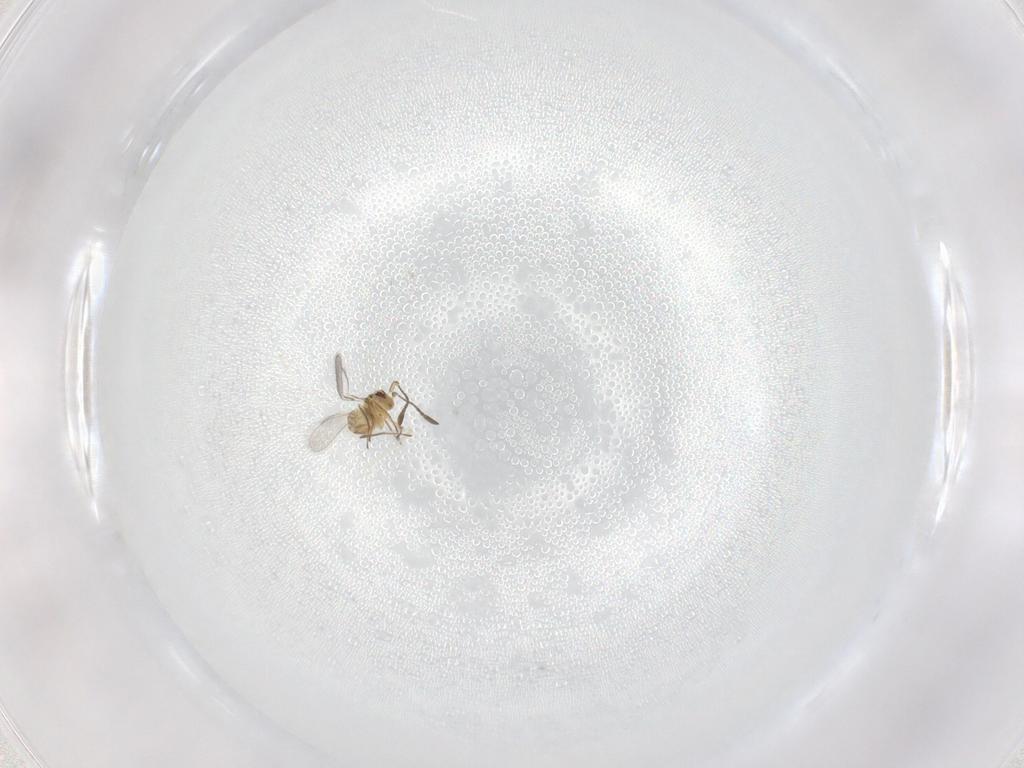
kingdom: Animalia
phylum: Arthropoda
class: Insecta
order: Hymenoptera
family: Mymaridae
